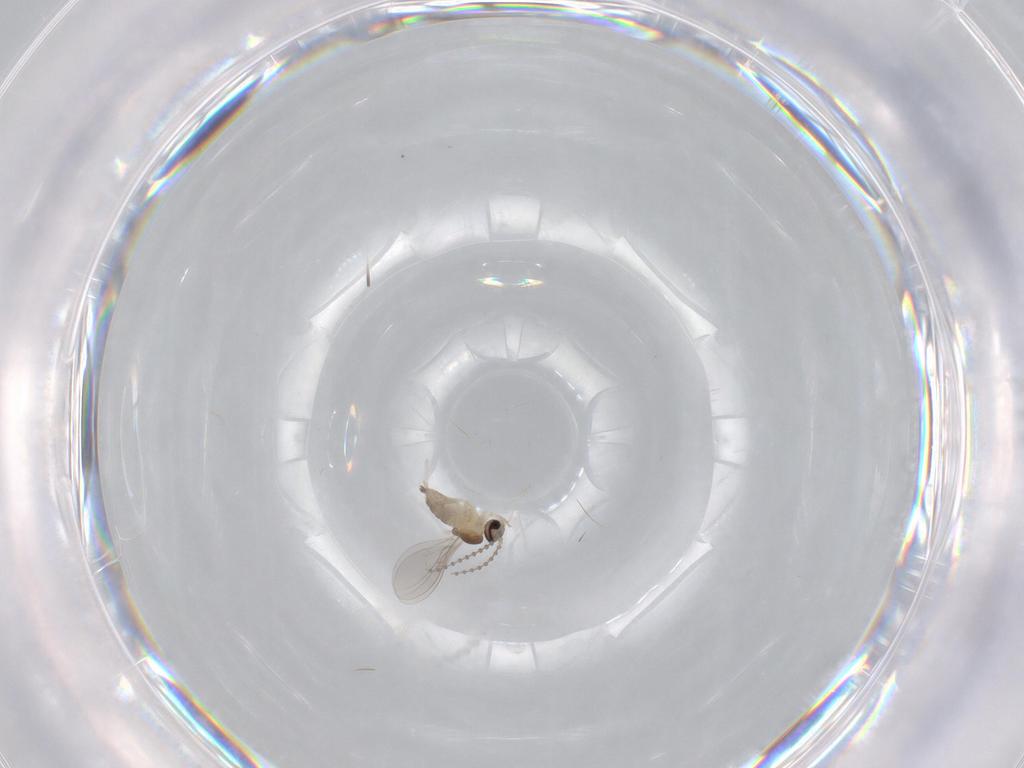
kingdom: Animalia
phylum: Arthropoda
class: Insecta
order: Diptera
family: Cecidomyiidae
